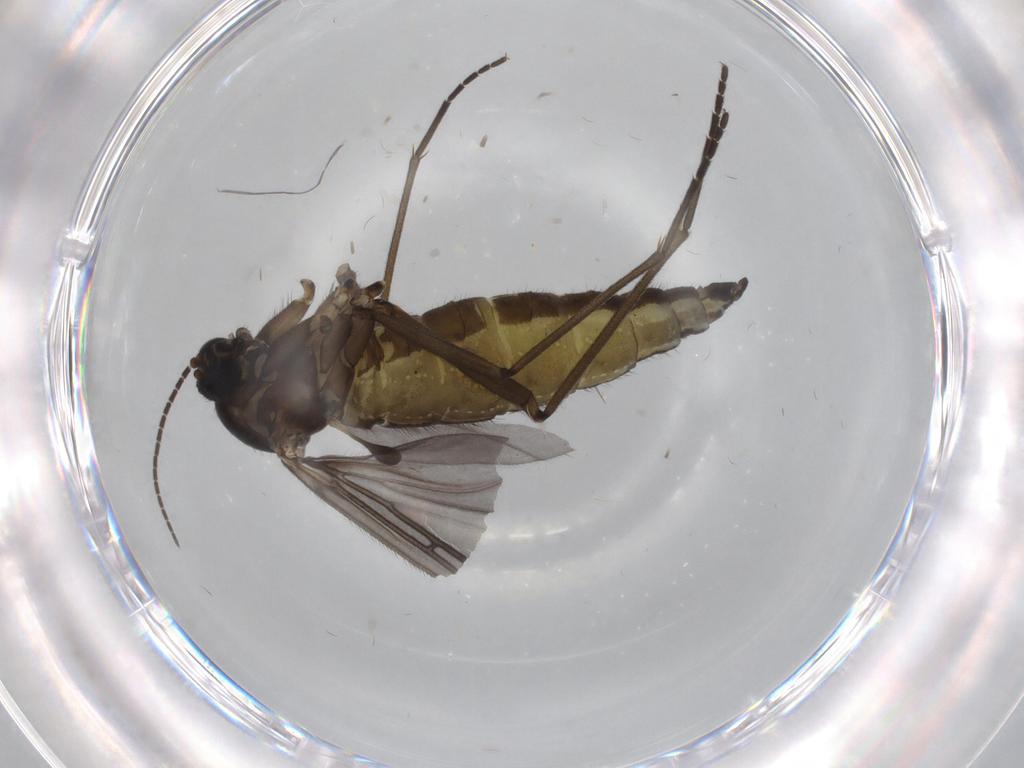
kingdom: Animalia
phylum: Arthropoda
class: Insecta
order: Diptera
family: Sciaridae
